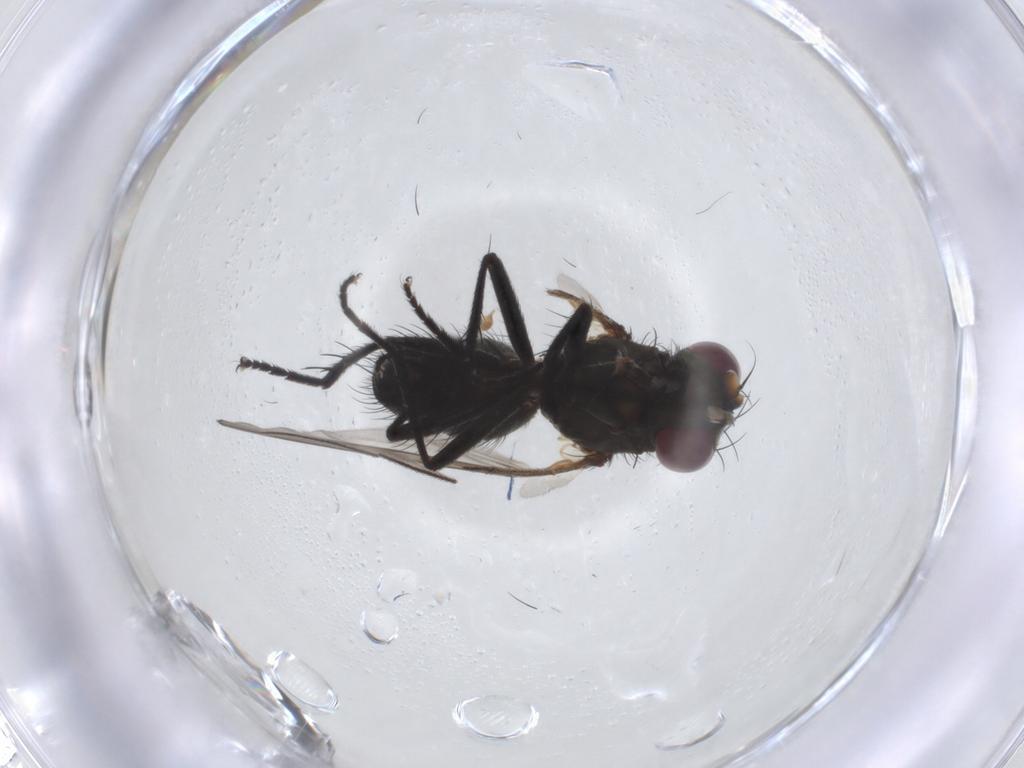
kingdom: Animalia
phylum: Arthropoda
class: Insecta
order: Diptera
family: Muscidae
